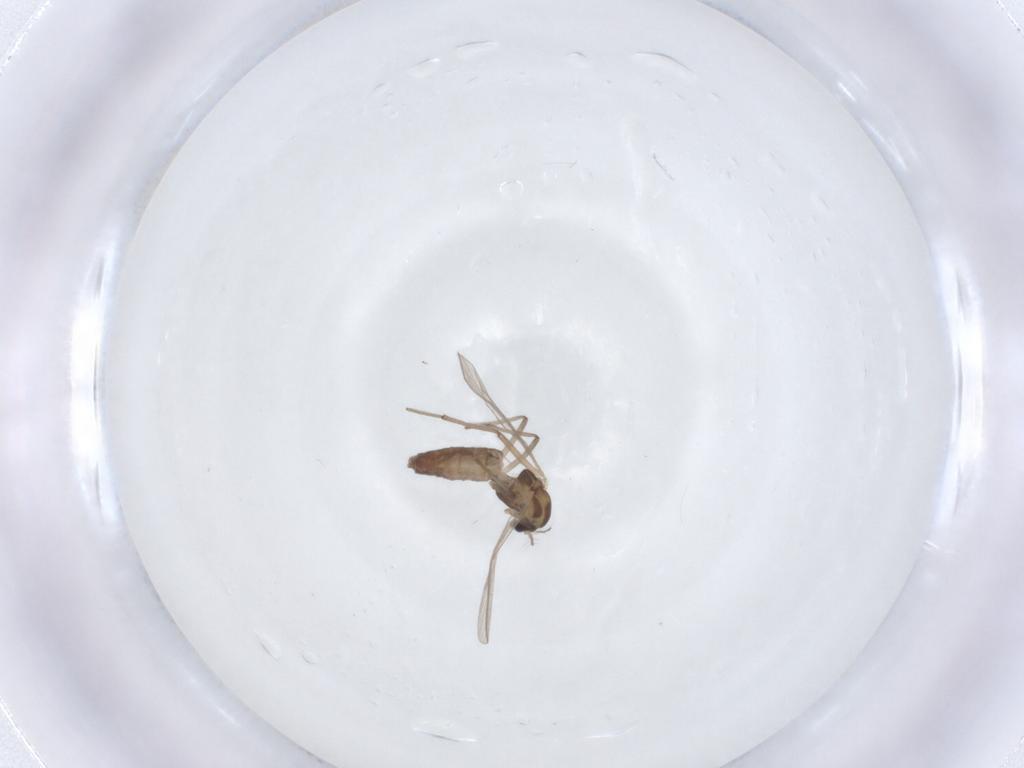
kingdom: Animalia
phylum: Arthropoda
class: Insecta
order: Diptera
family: Chironomidae
